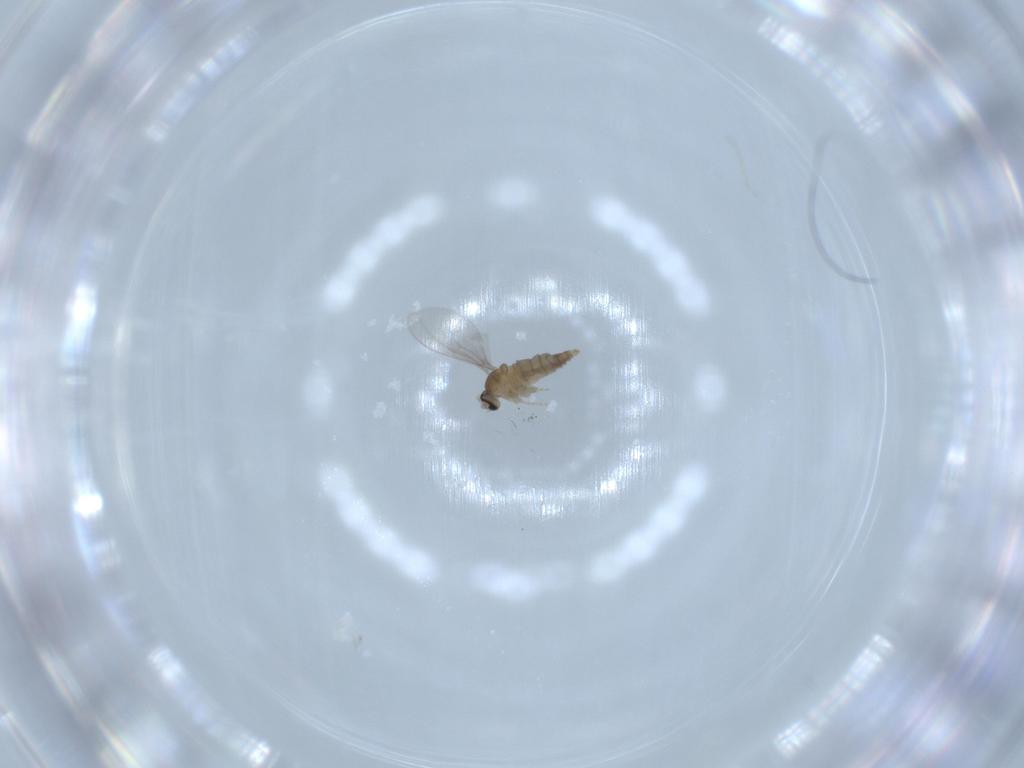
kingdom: Animalia
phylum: Arthropoda
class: Insecta
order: Diptera
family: Cecidomyiidae
